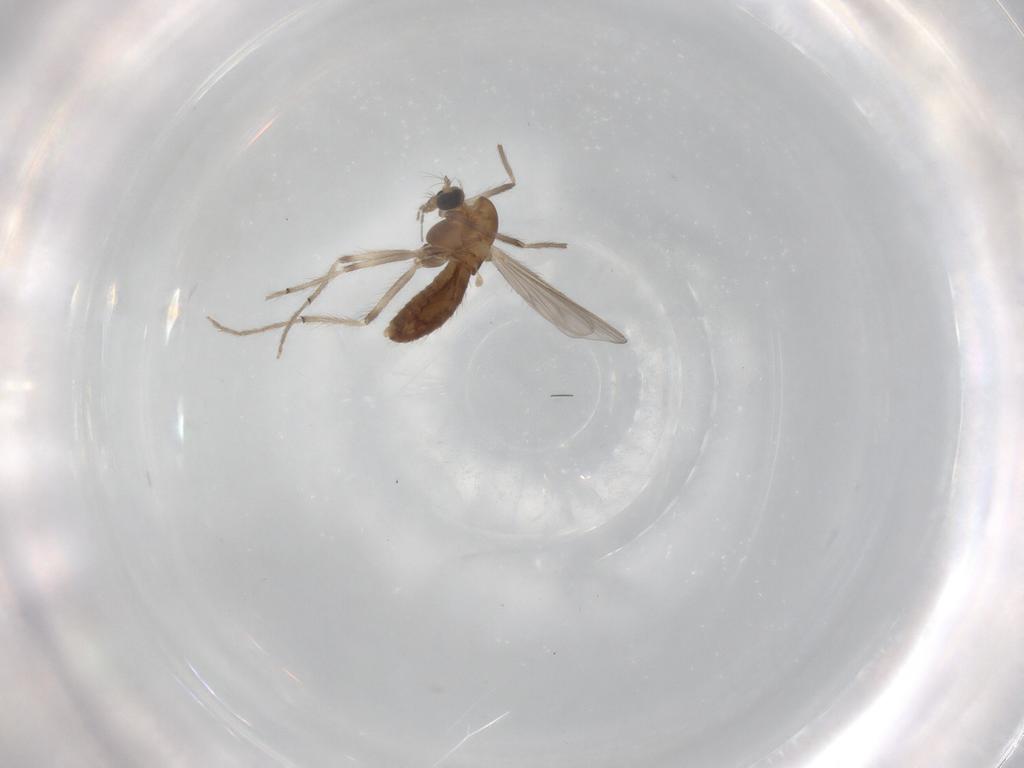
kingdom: Animalia
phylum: Arthropoda
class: Insecta
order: Diptera
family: Chironomidae
